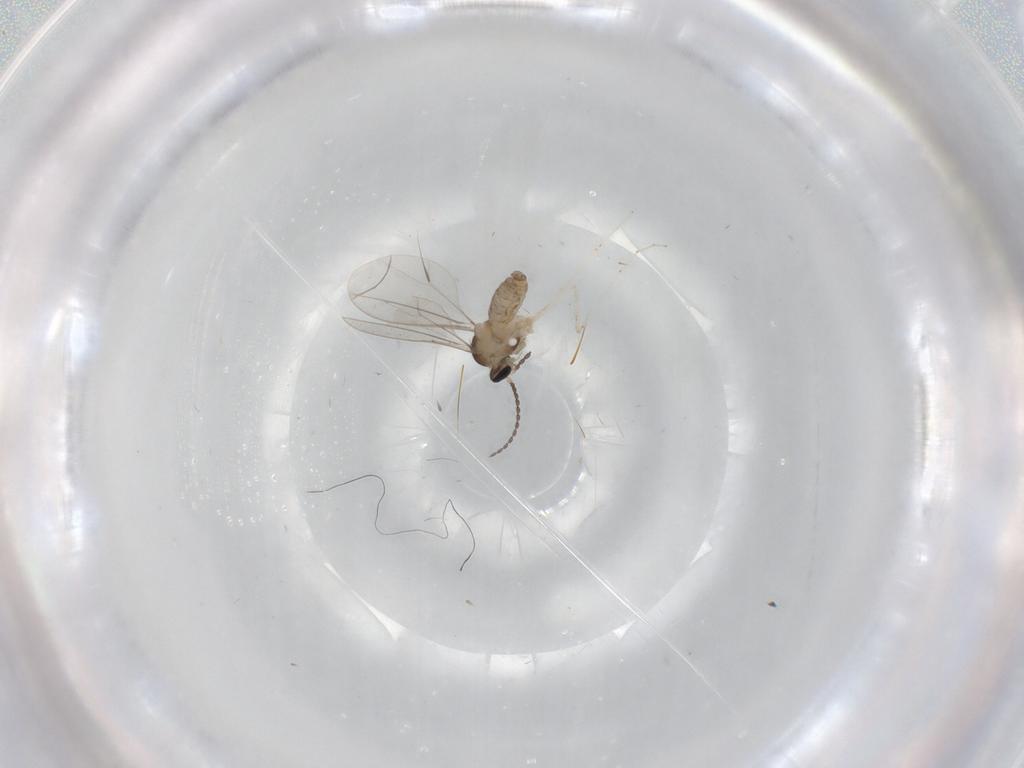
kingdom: Animalia
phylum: Arthropoda
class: Insecta
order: Diptera
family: Cecidomyiidae
